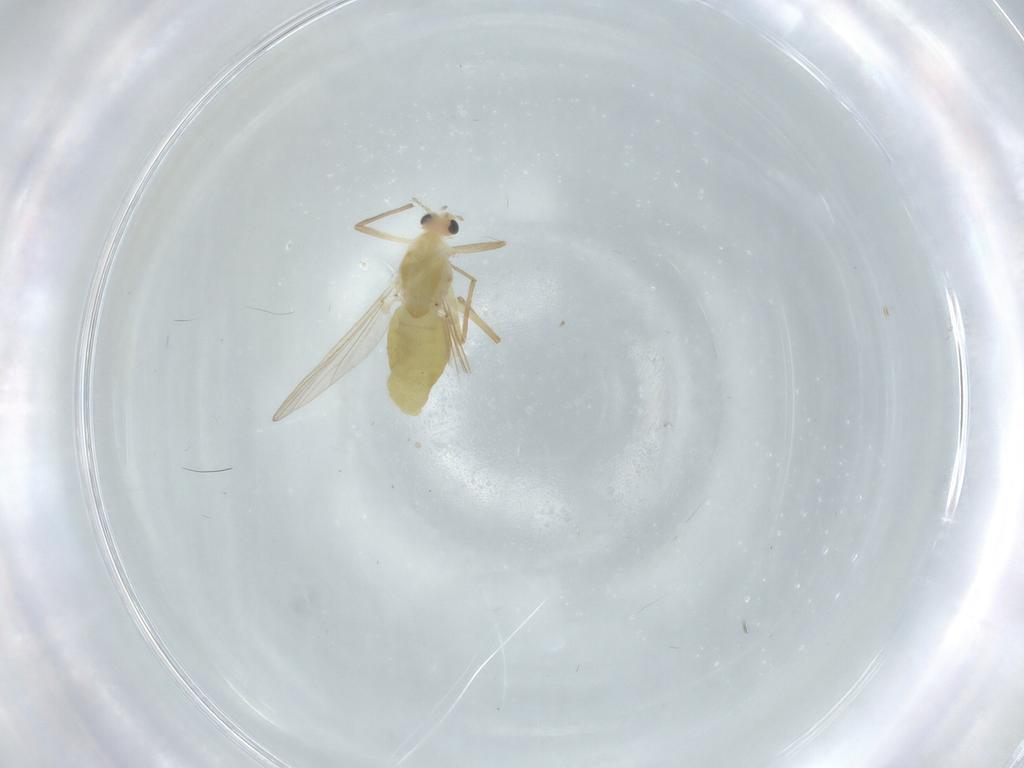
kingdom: Animalia
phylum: Arthropoda
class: Insecta
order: Diptera
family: Chironomidae
